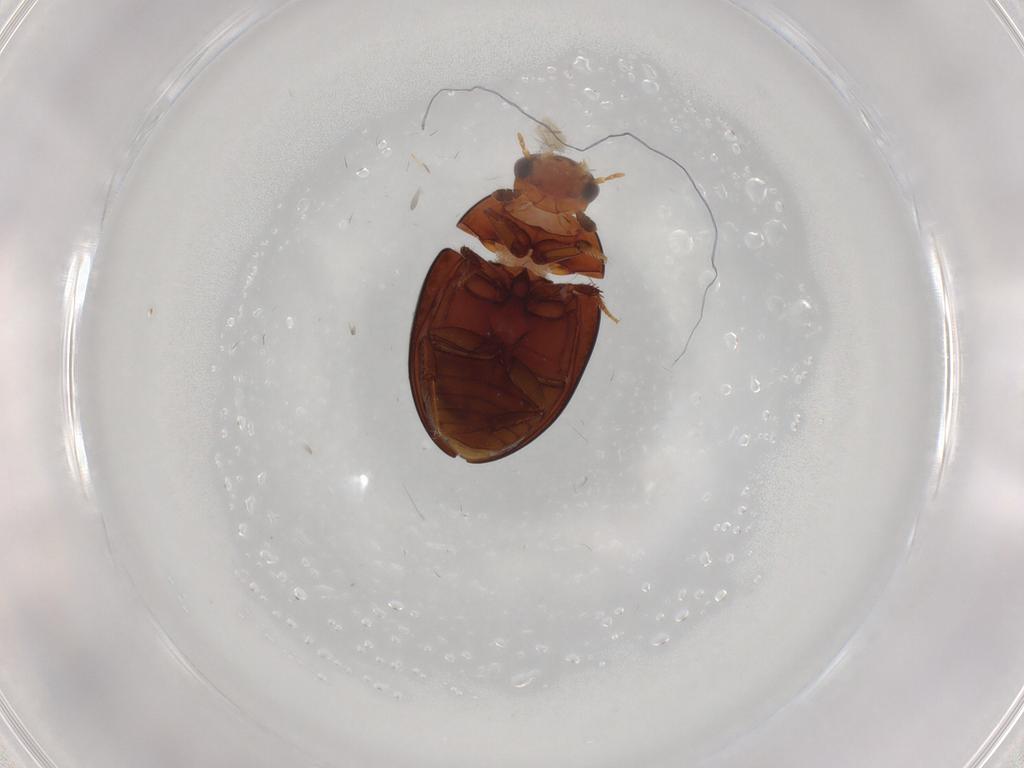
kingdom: Animalia
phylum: Arthropoda
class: Insecta
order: Coleoptera
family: Hydrophilidae
